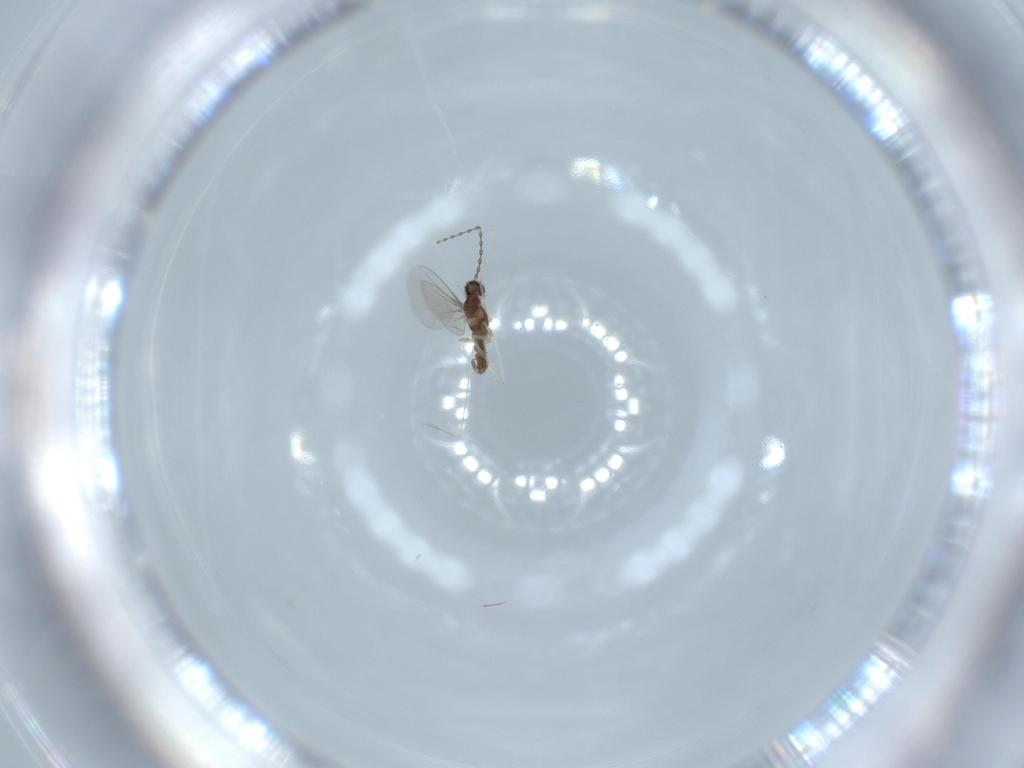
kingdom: Animalia
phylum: Arthropoda
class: Insecta
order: Diptera
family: Cecidomyiidae
